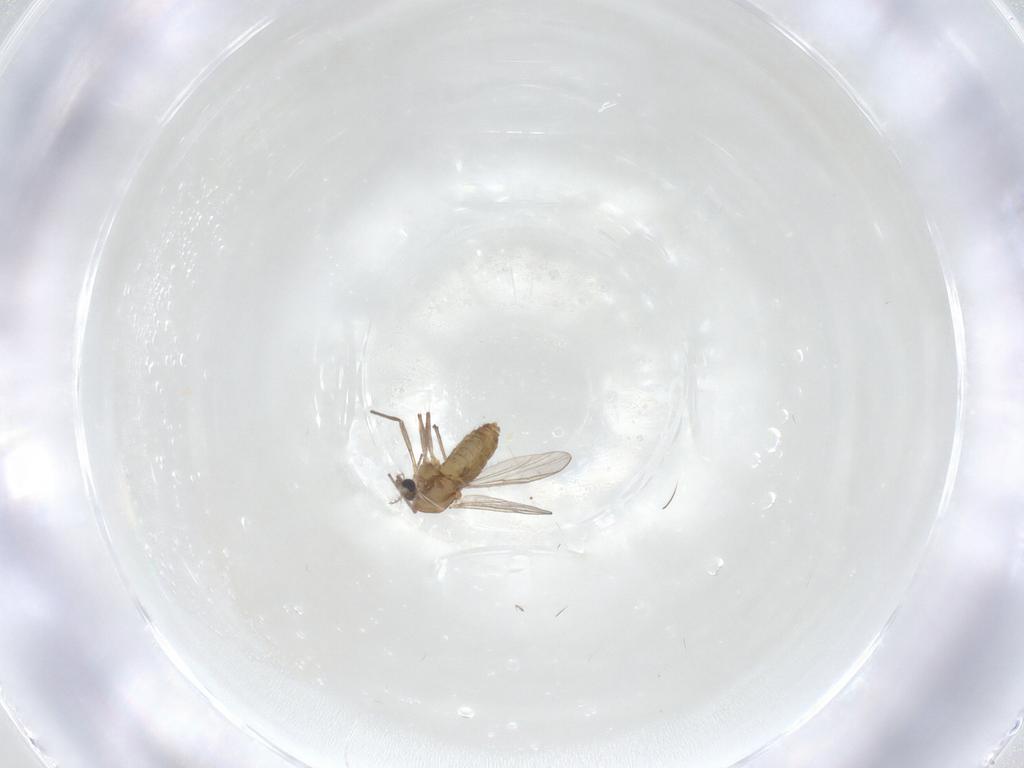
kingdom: Animalia
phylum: Arthropoda
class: Insecta
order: Diptera
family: Chironomidae
